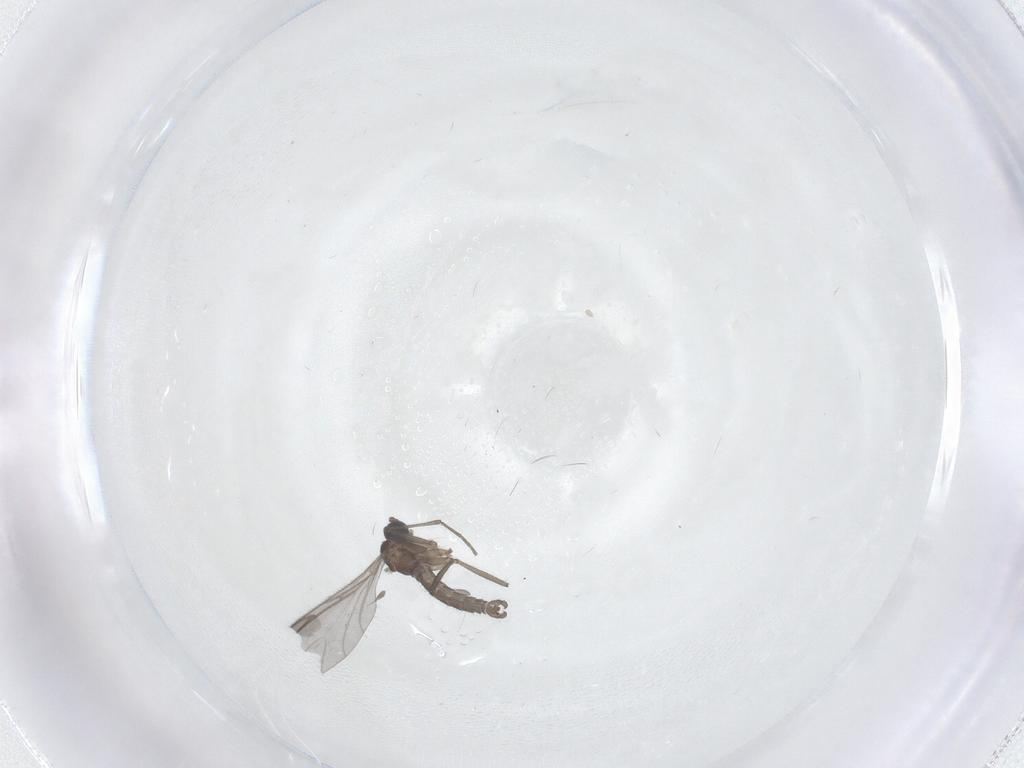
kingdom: Animalia
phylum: Arthropoda
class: Insecta
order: Diptera
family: Sciaridae
